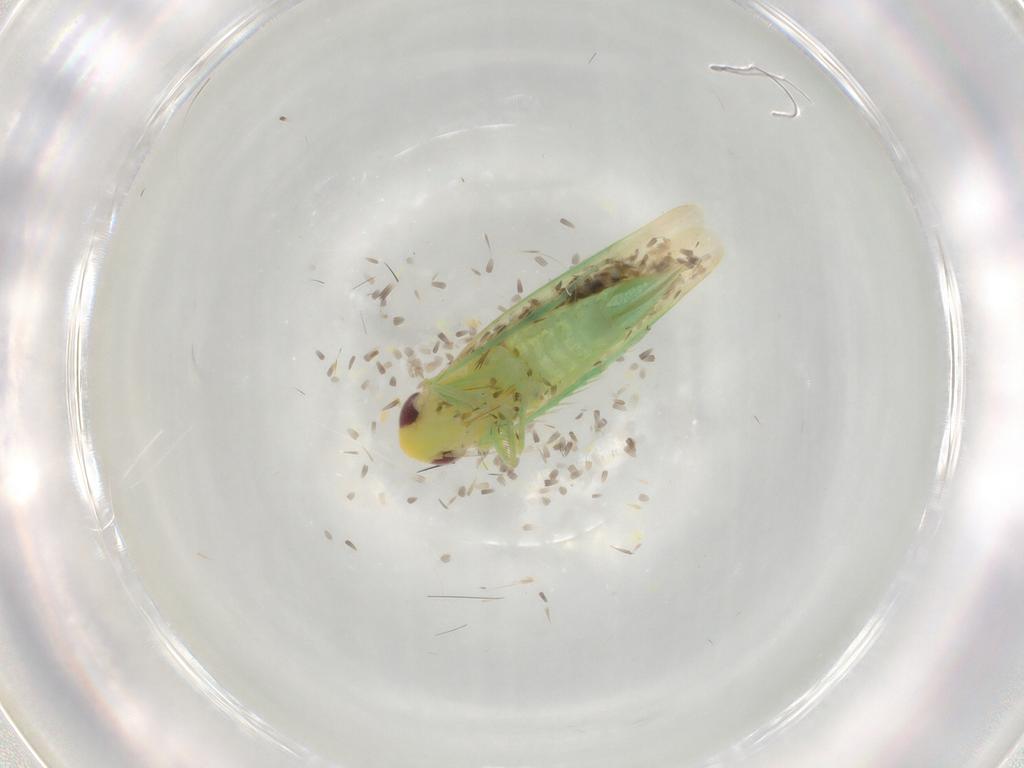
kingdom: Animalia
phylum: Arthropoda
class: Insecta
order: Hemiptera
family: Cicadellidae
